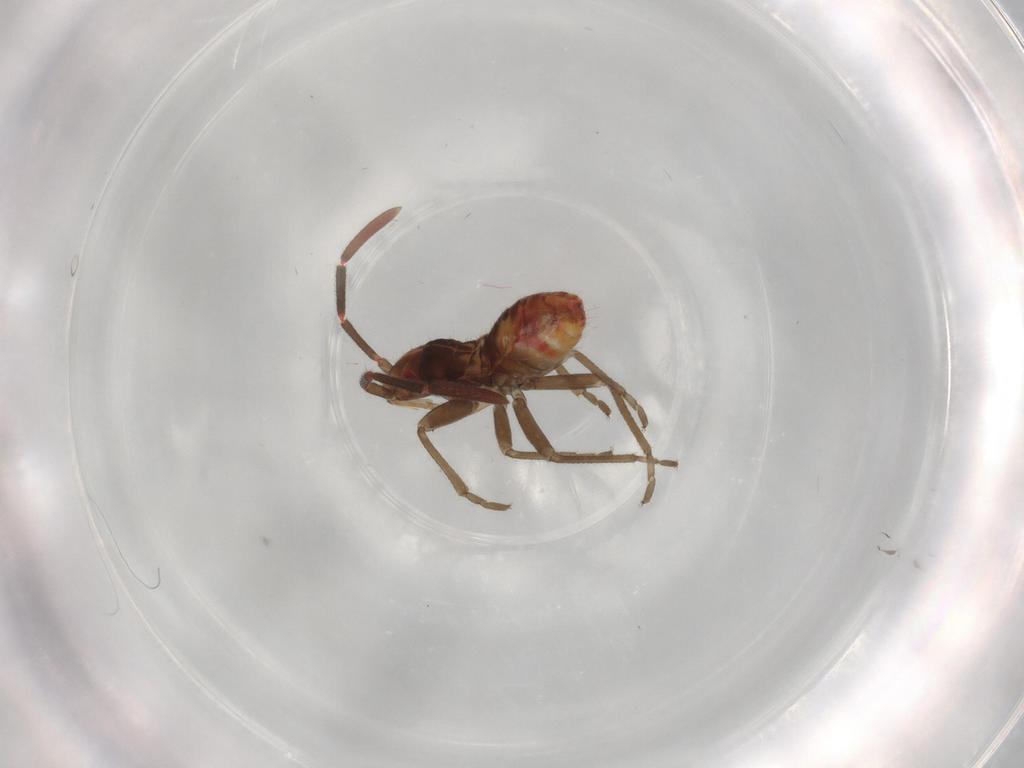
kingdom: Animalia
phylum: Arthropoda
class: Insecta
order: Hemiptera
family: Rhyparochromidae
